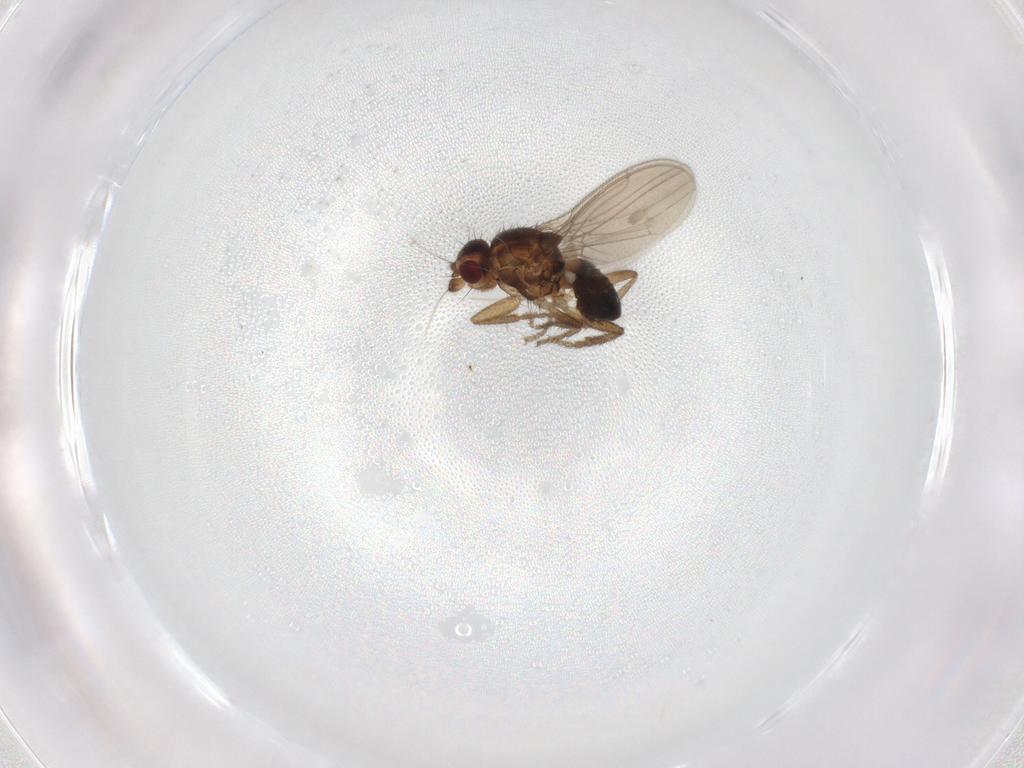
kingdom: Animalia
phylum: Arthropoda
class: Insecta
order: Diptera
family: Sphaeroceridae
